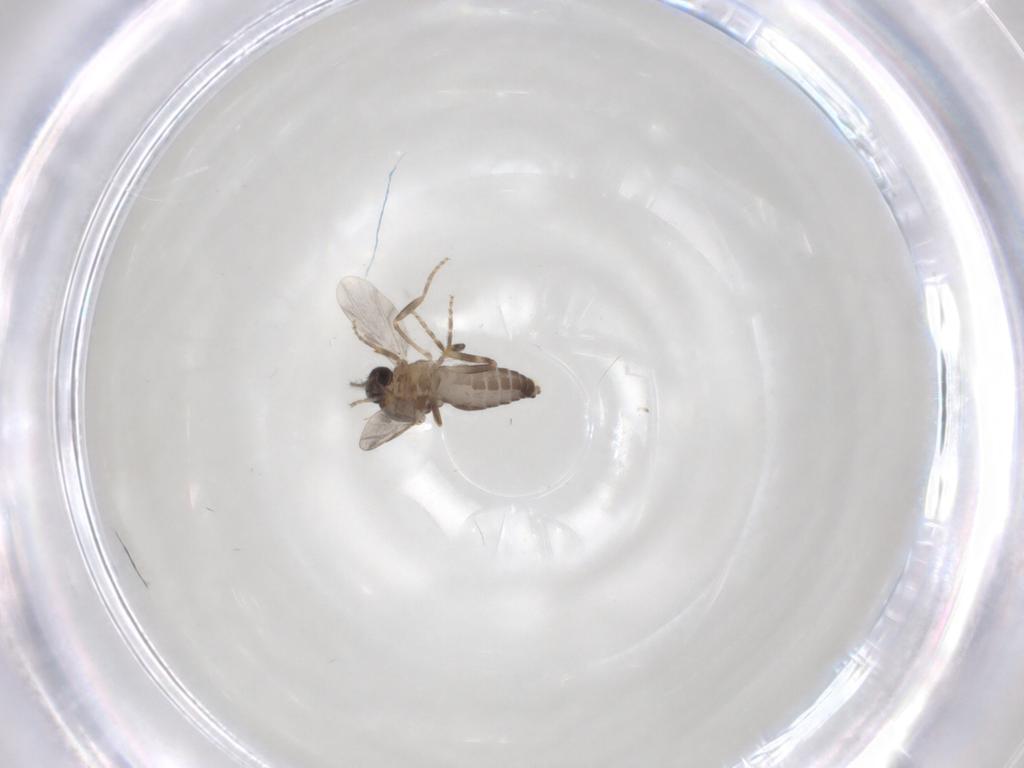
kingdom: Animalia
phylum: Arthropoda
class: Insecta
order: Diptera
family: Ceratopogonidae
